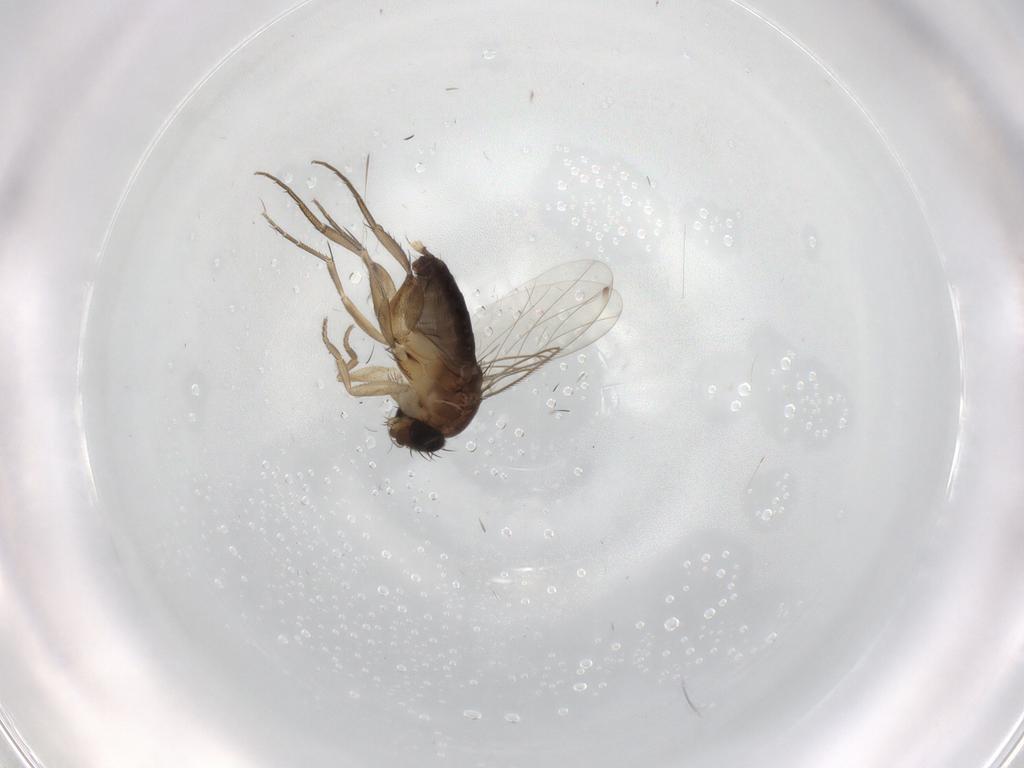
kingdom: Animalia
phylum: Arthropoda
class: Insecta
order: Diptera
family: Phoridae
